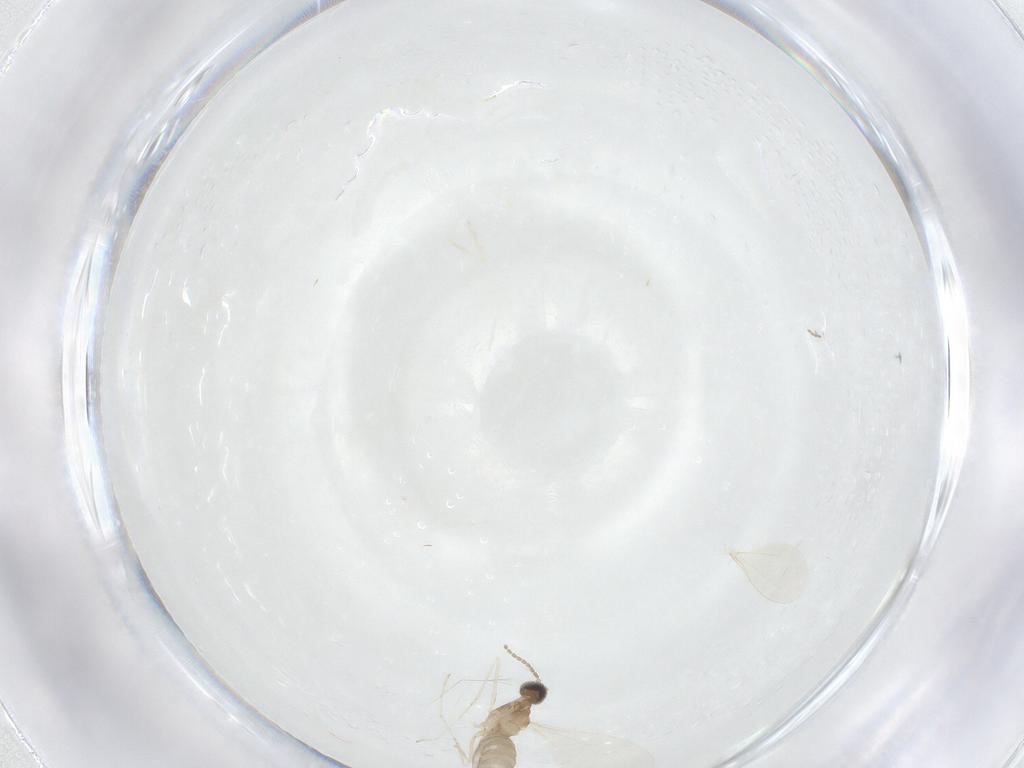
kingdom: Animalia
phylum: Arthropoda
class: Insecta
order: Diptera
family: Cecidomyiidae
